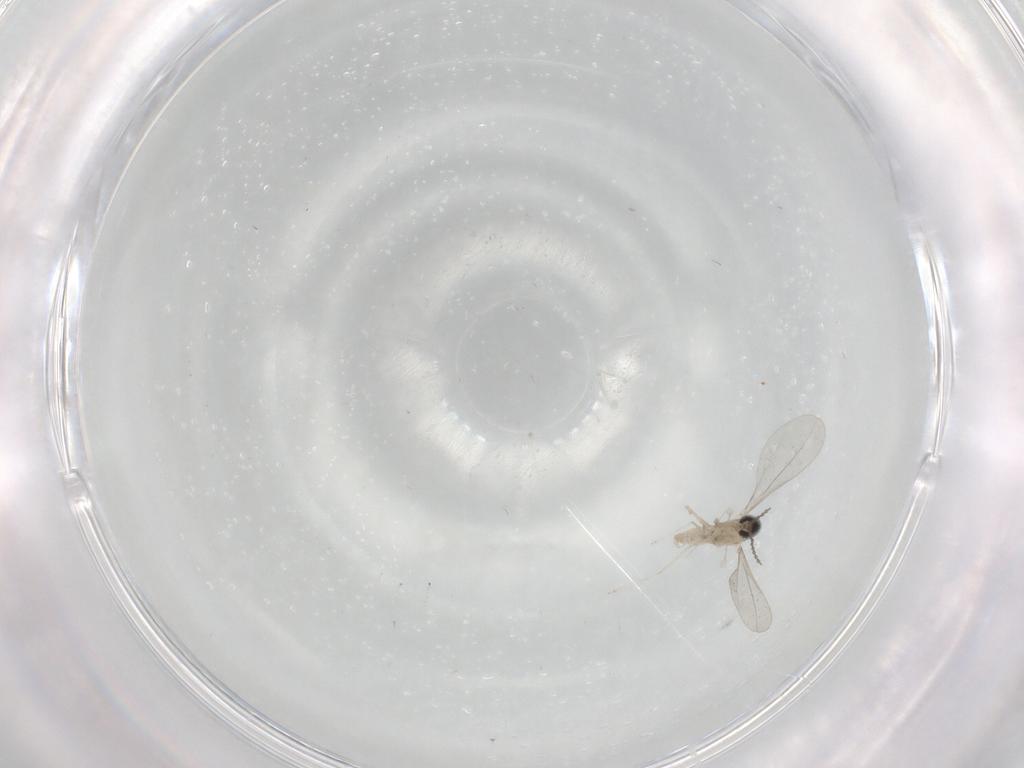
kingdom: Animalia
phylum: Arthropoda
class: Insecta
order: Diptera
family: Cecidomyiidae
